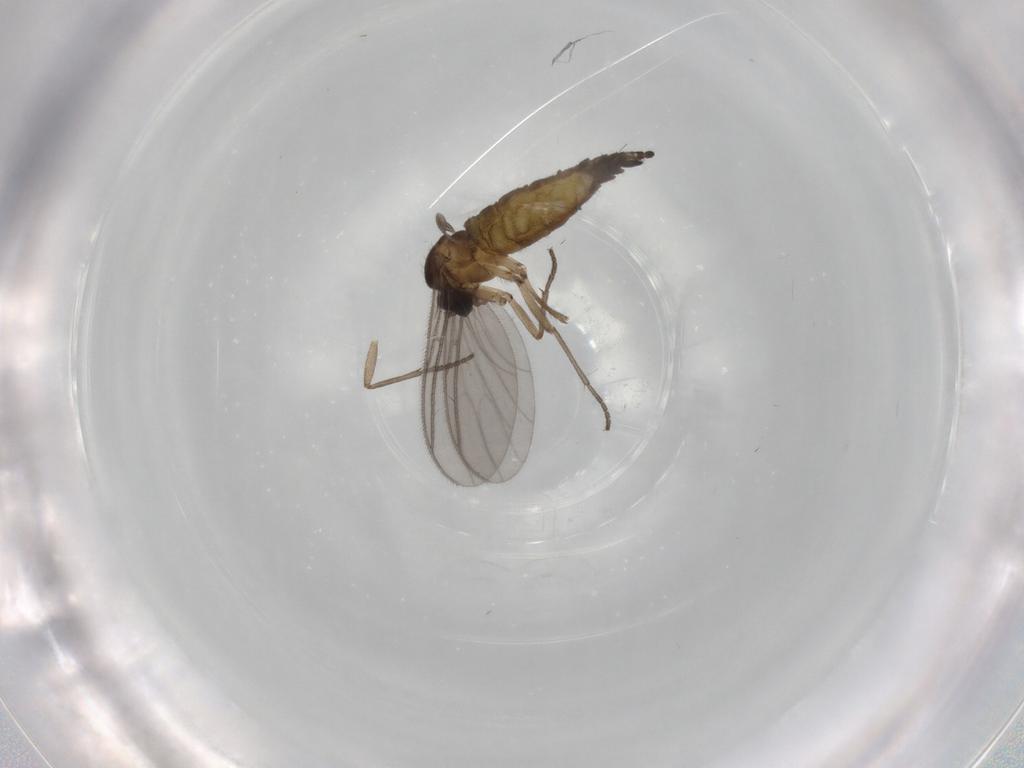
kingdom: Animalia
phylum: Arthropoda
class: Insecta
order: Diptera
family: Sciaridae
